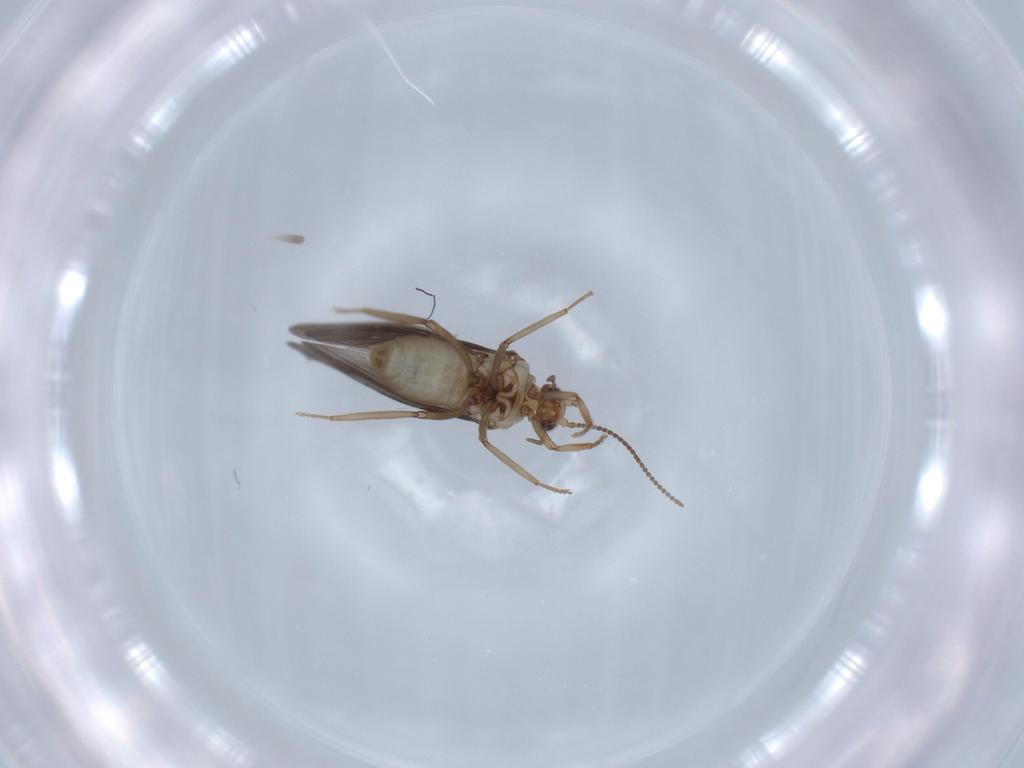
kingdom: Animalia
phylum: Arthropoda
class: Insecta
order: Neuroptera
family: Coniopterygidae
